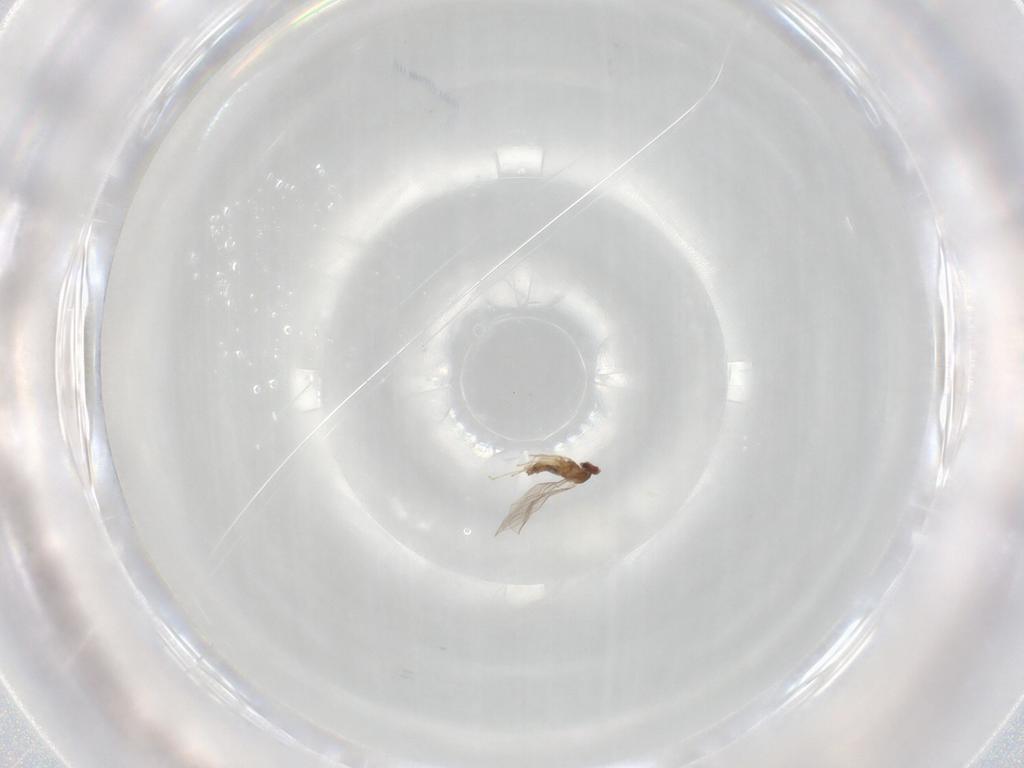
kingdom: Animalia
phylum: Arthropoda
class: Insecta
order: Diptera
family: Cecidomyiidae
